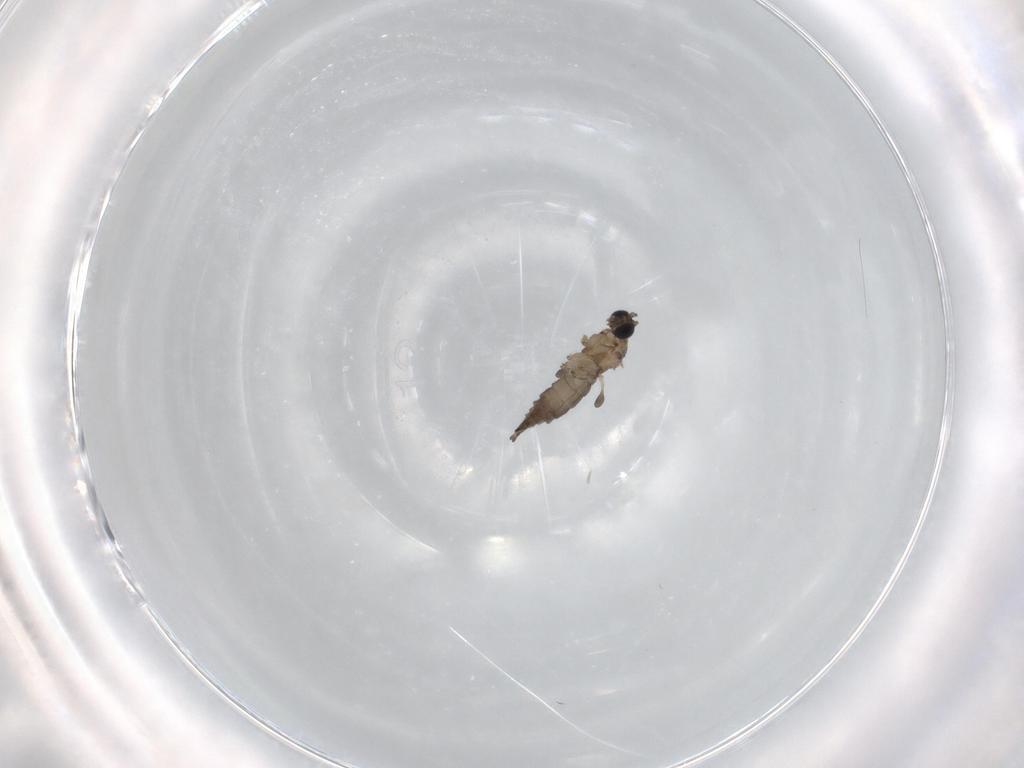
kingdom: Animalia
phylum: Arthropoda
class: Insecta
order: Diptera
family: Sciaridae
